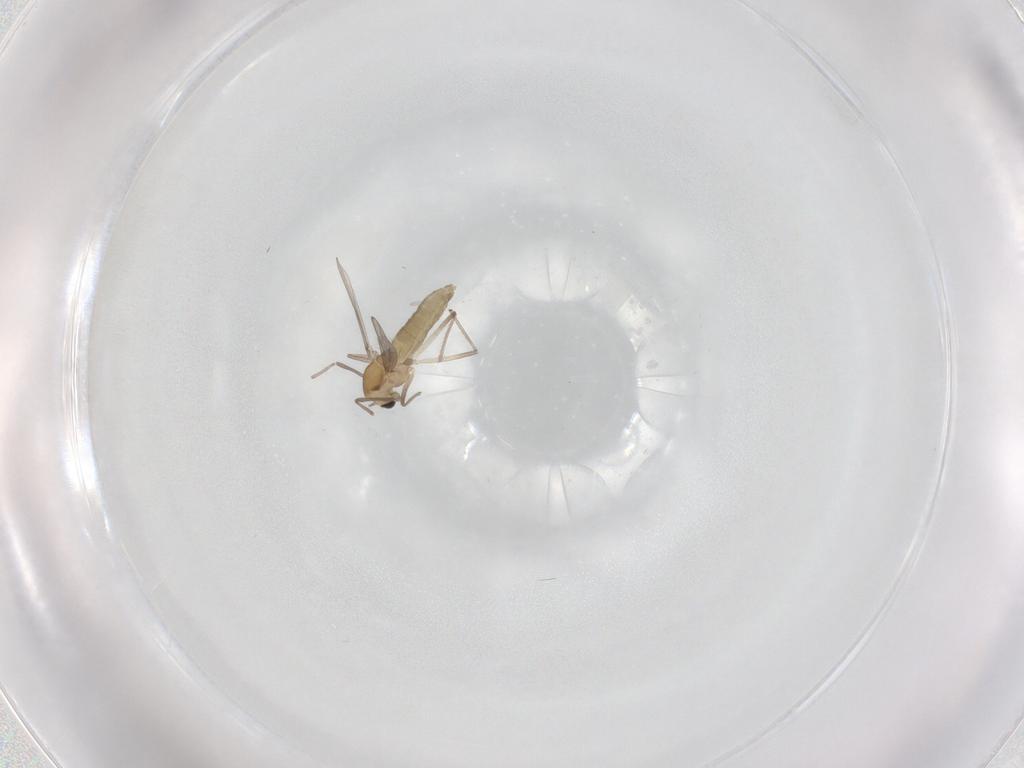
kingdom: Animalia
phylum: Arthropoda
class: Insecta
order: Diptera
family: Chironomidae
